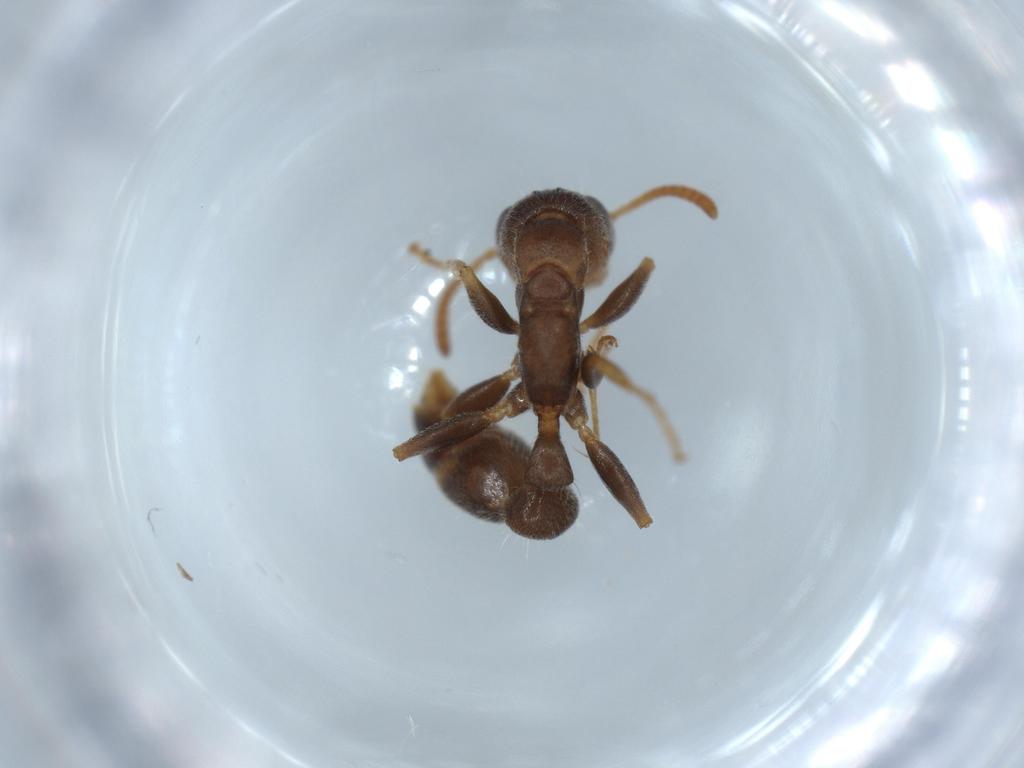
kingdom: Animalia
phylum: Arthropoda
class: Insecta
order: Hymenoptera
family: Formicidae
